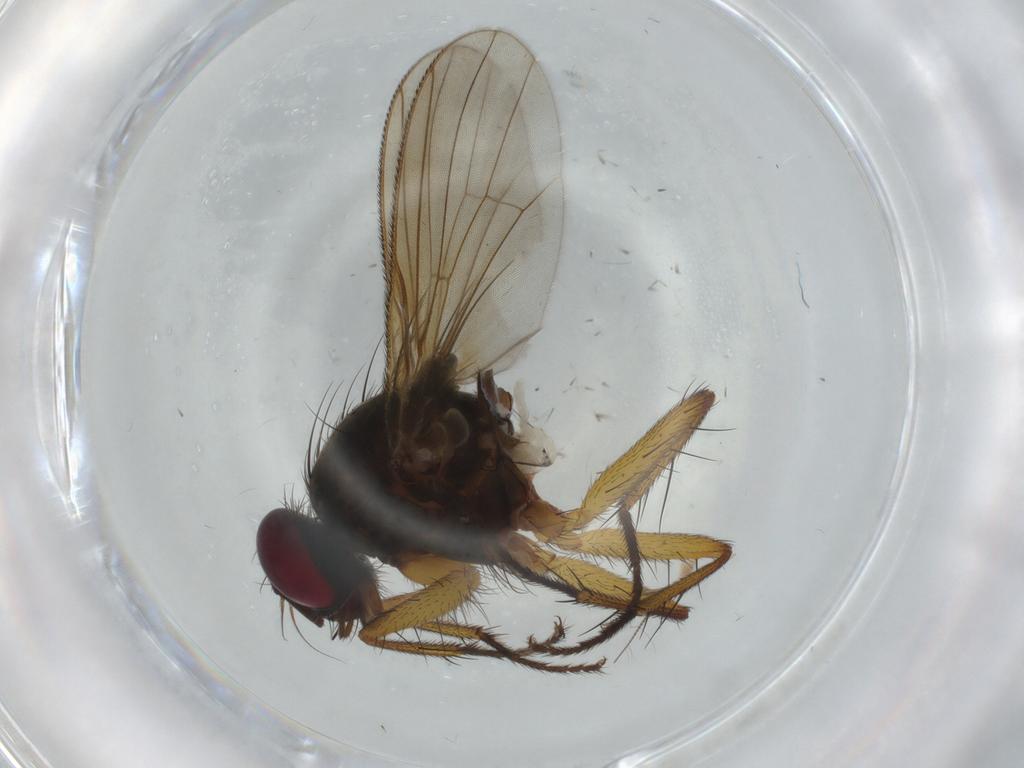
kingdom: Animalia
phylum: Arthropoda
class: Insecta
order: Diptera
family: Muscidae
